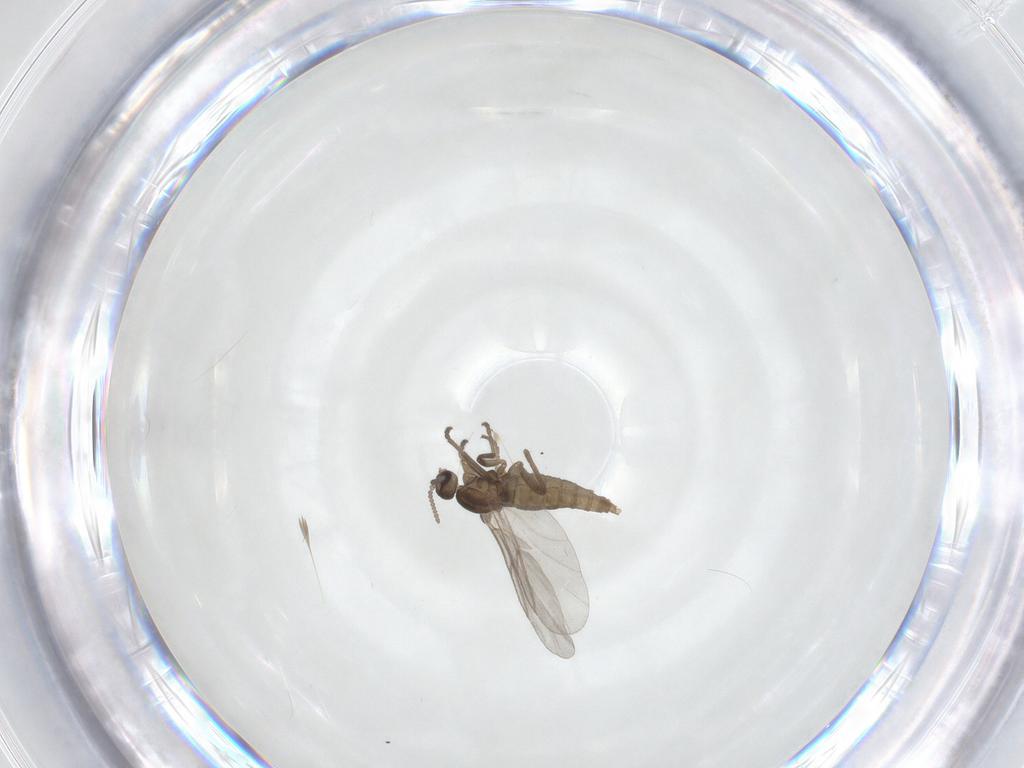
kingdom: Animalia
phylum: Arthropoda
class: Insecta
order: Diptera
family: Cecidomyiidae
